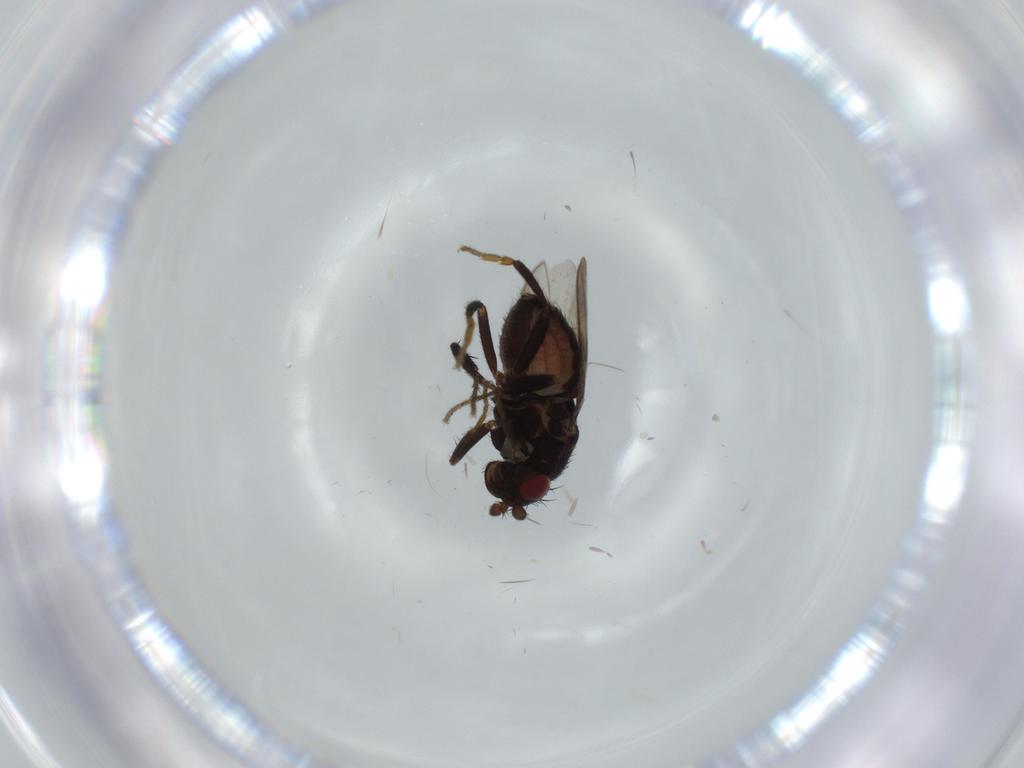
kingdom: Animalia
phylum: Arthropoda
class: Insecta
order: Diptera
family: Sphaeroceridae
